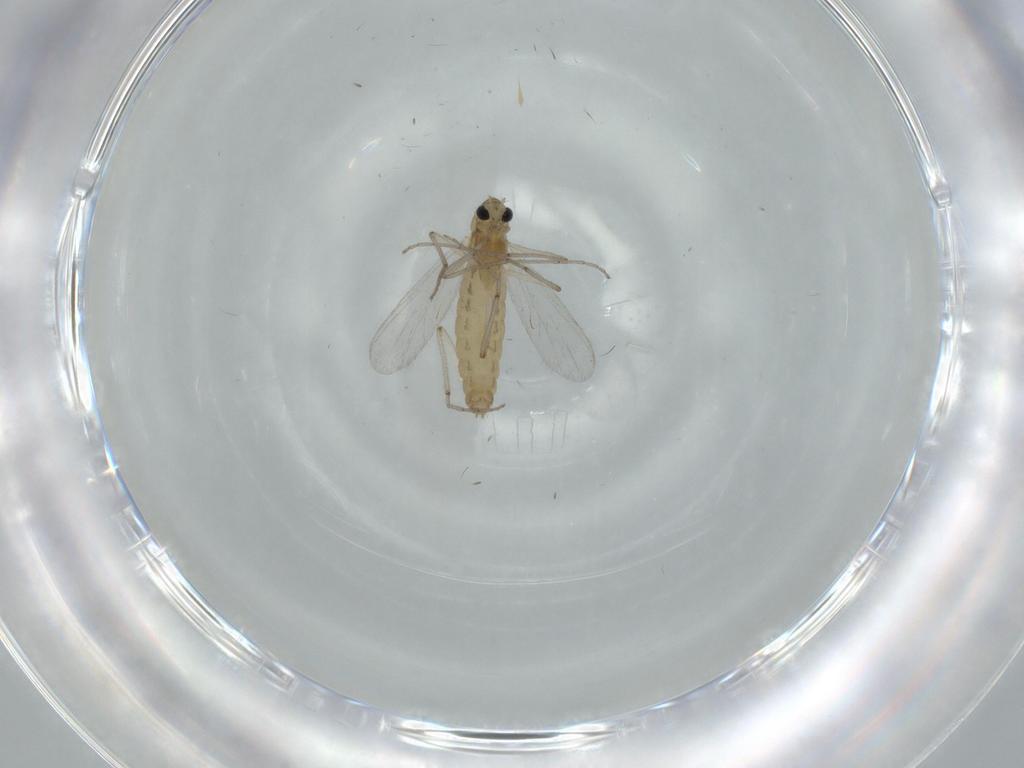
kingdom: Animalia
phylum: Arthropoda
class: Insecta
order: Diptera
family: Chironomidae
